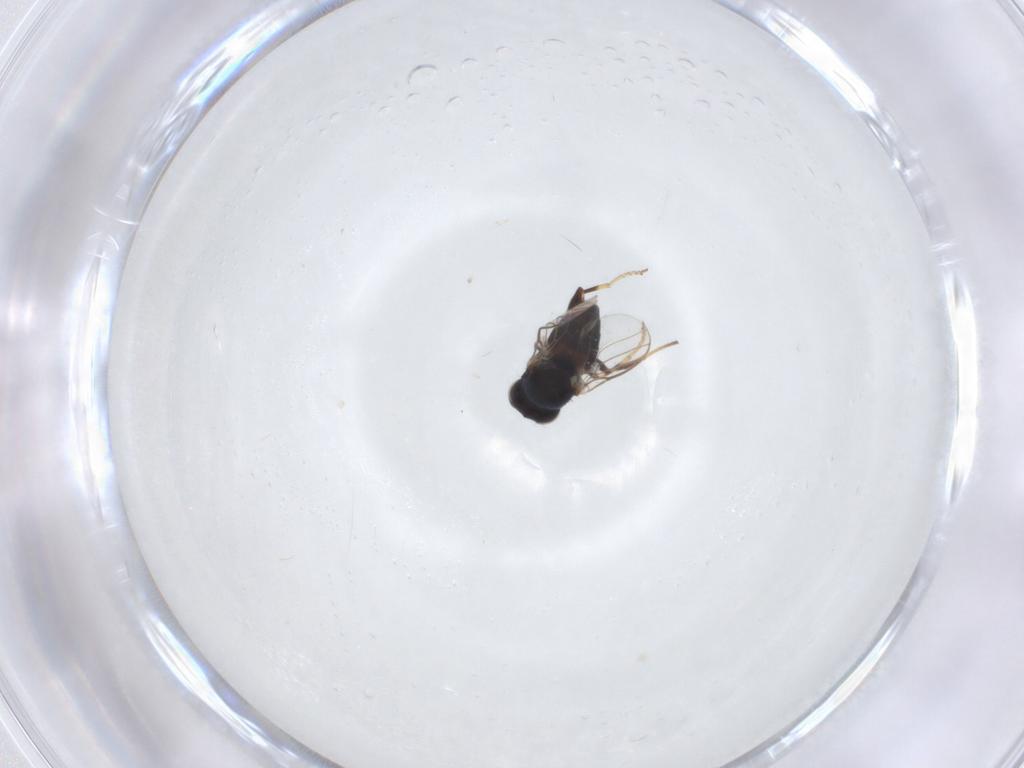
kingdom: Animalia
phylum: Arthropoda
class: Insecta
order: Diptera
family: Chloropidae
